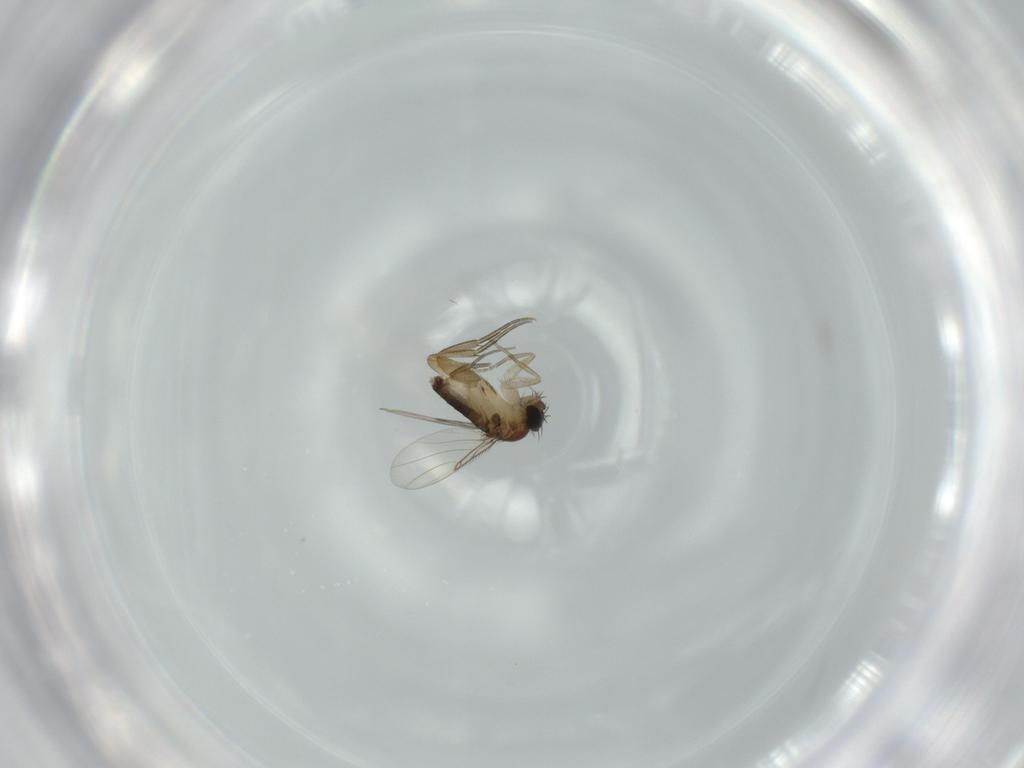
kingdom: Animalia
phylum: Arthropoda
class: Insecta
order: Diptera
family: Phoridae
